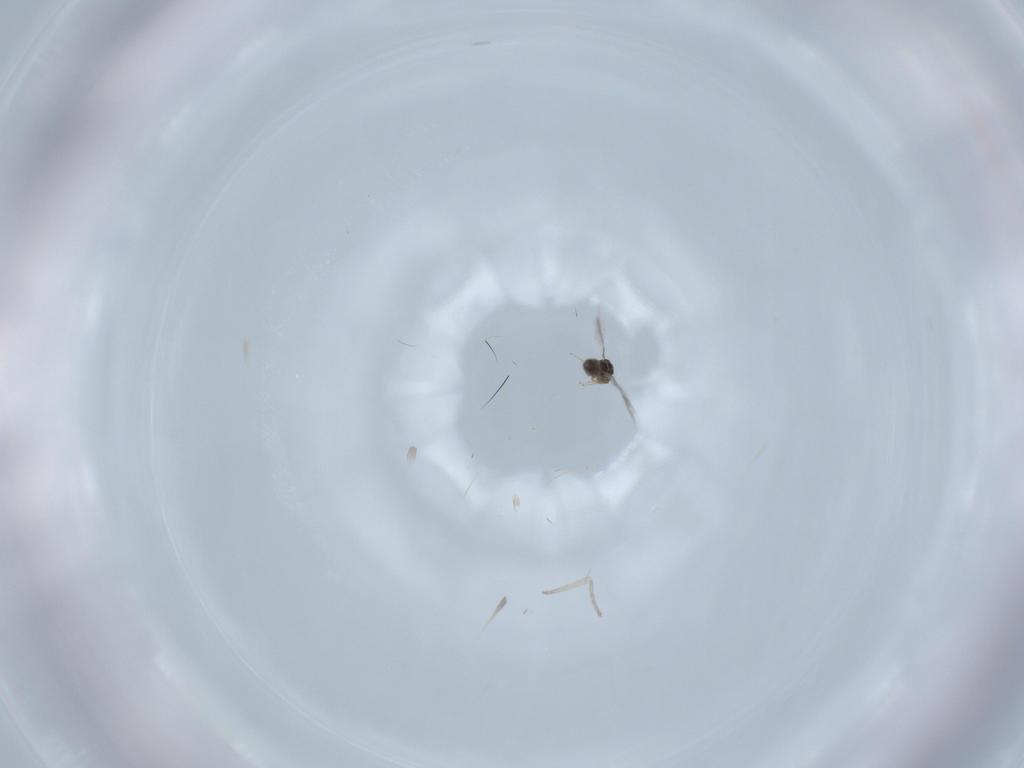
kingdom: Animalia
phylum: Arthropoda
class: Insecta
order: Hymenoptera
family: Mymaridae
